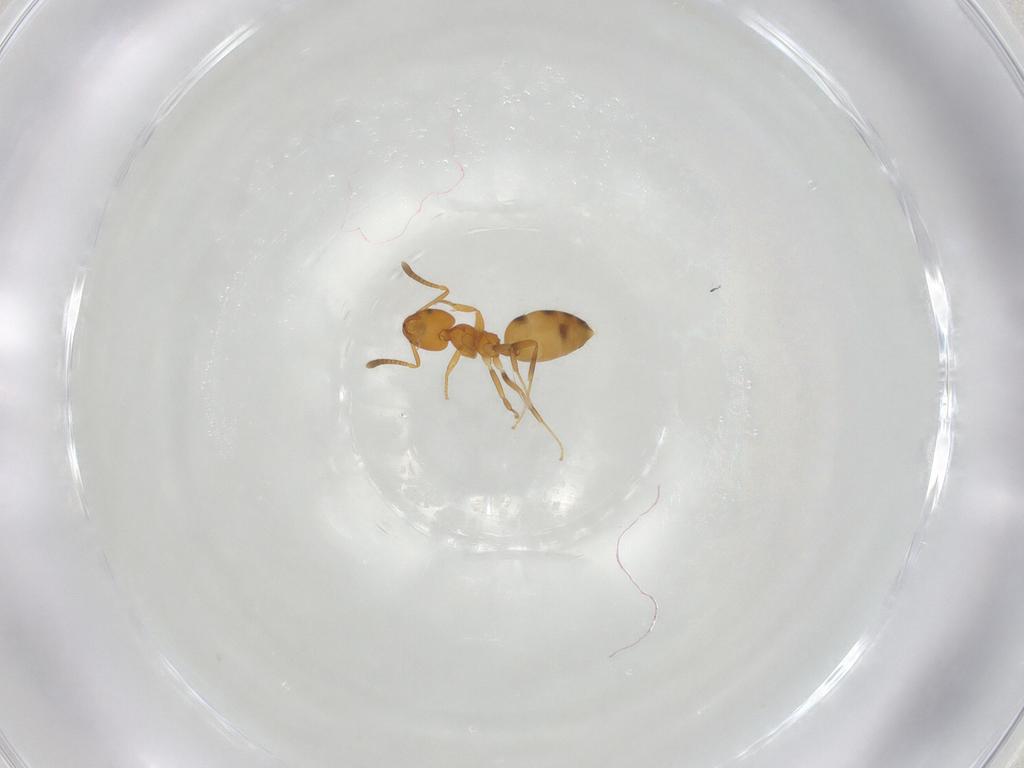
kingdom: Animalia
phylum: Arthropoda
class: Insecta
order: Hymenoptera
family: Formicidae
